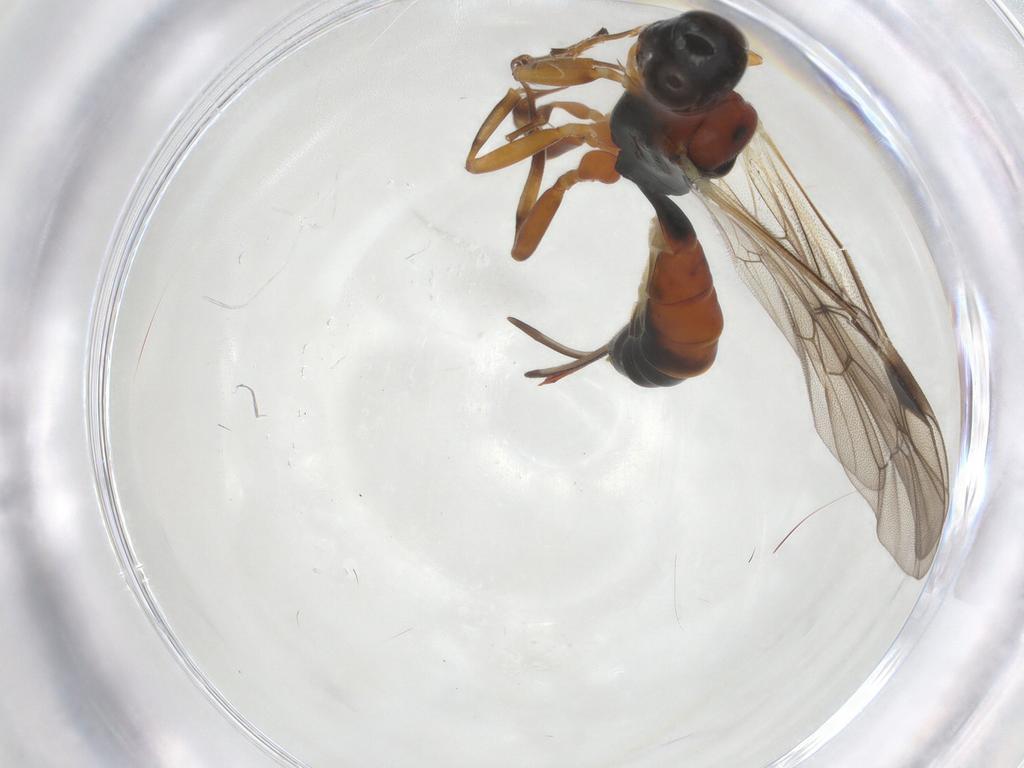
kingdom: Animalia
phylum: Arthropoda
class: Insecta
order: Hymenoptera
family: Ichneumonidae
